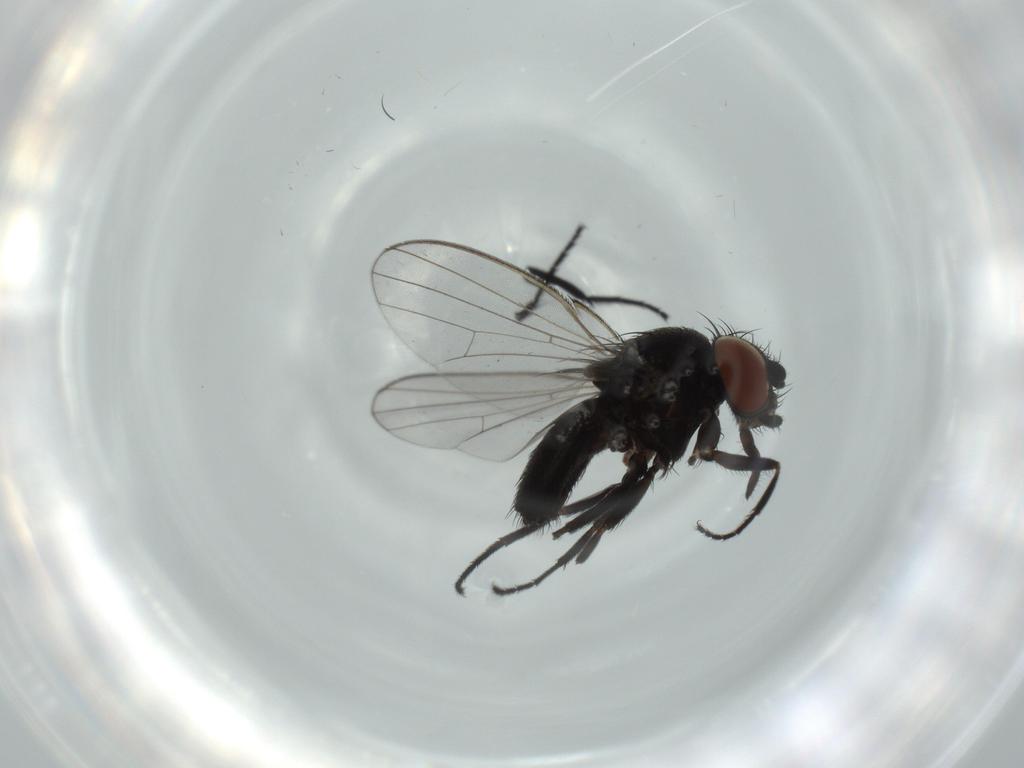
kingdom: Animalia
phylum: Arthropoda
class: Insecta
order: Diptera
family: Milichiidae
